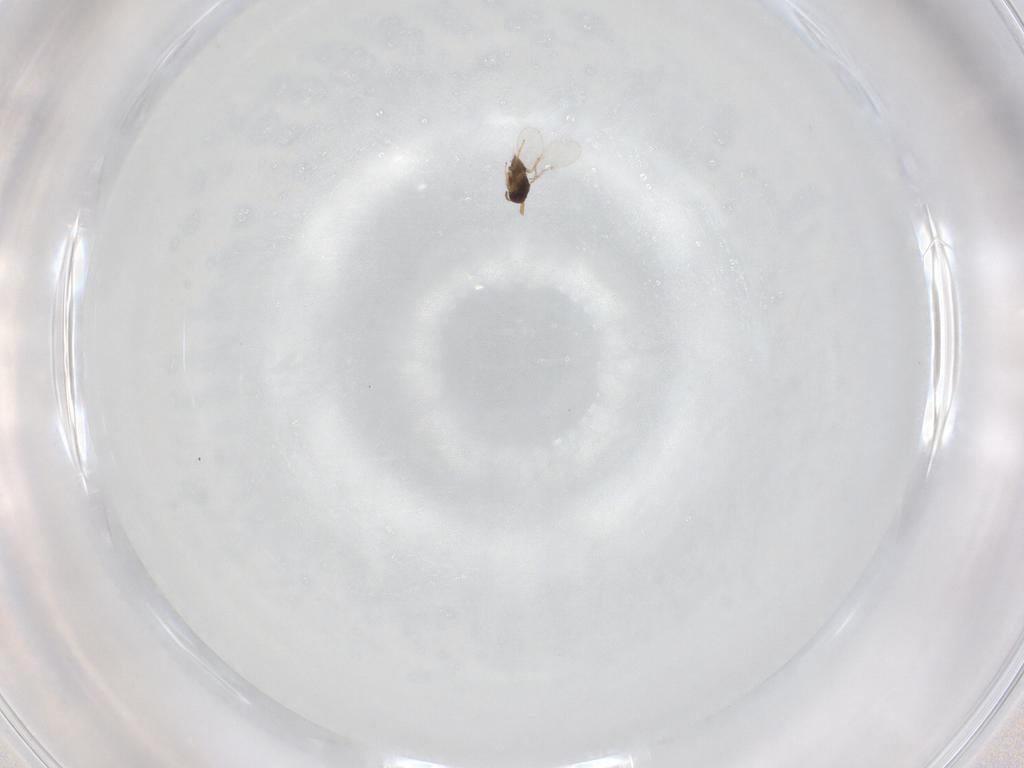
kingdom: Animalia
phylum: Arthropoda
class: Insecta
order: Hymenoptera
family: Encyrtidae
